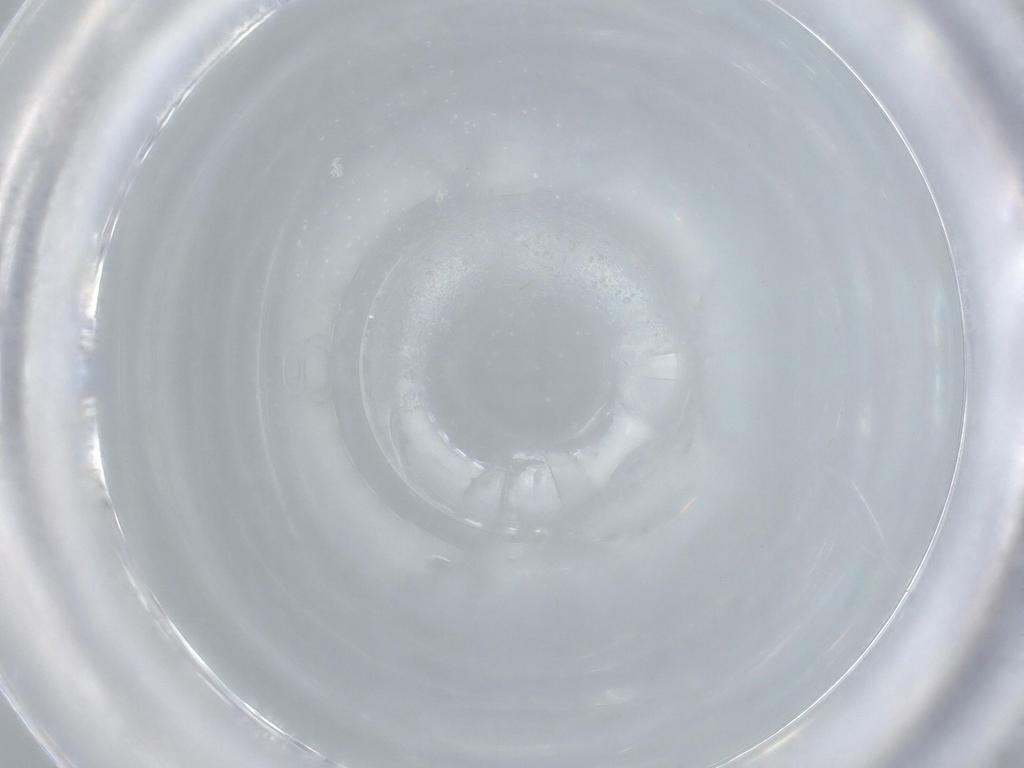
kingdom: Animalia
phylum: Arthropoda
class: Insecta
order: Coleoptera
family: Throscidae
